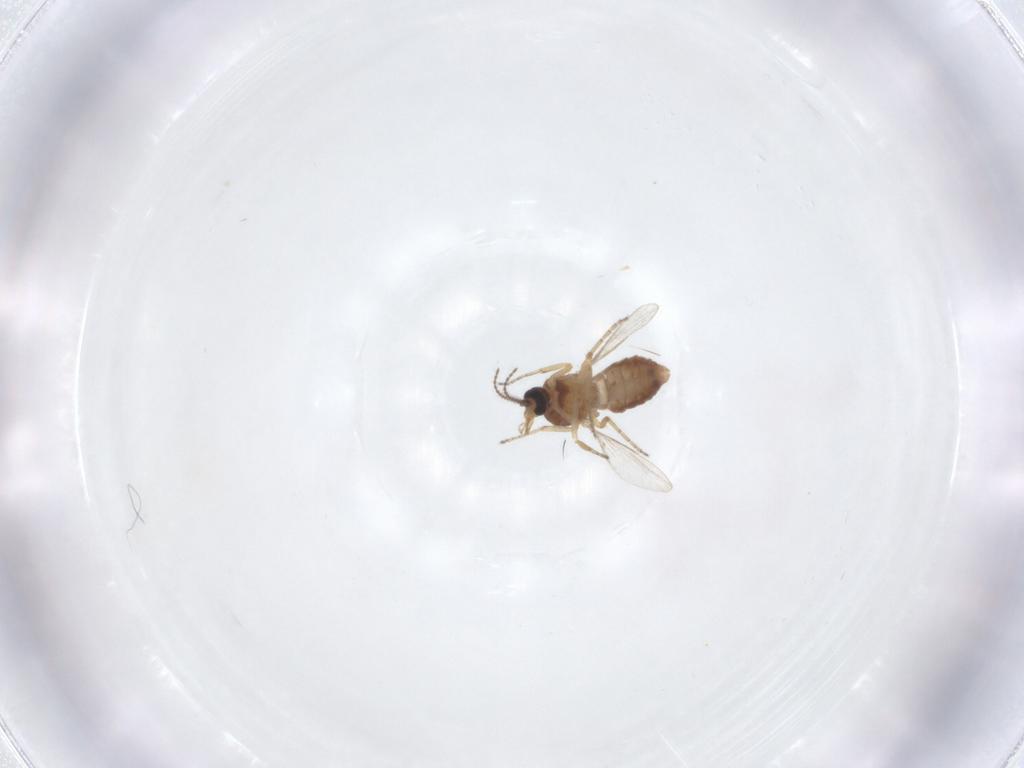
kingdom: Animalia
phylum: Arthropoda
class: Insecta
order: Diptera
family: Ceratopogonidae
